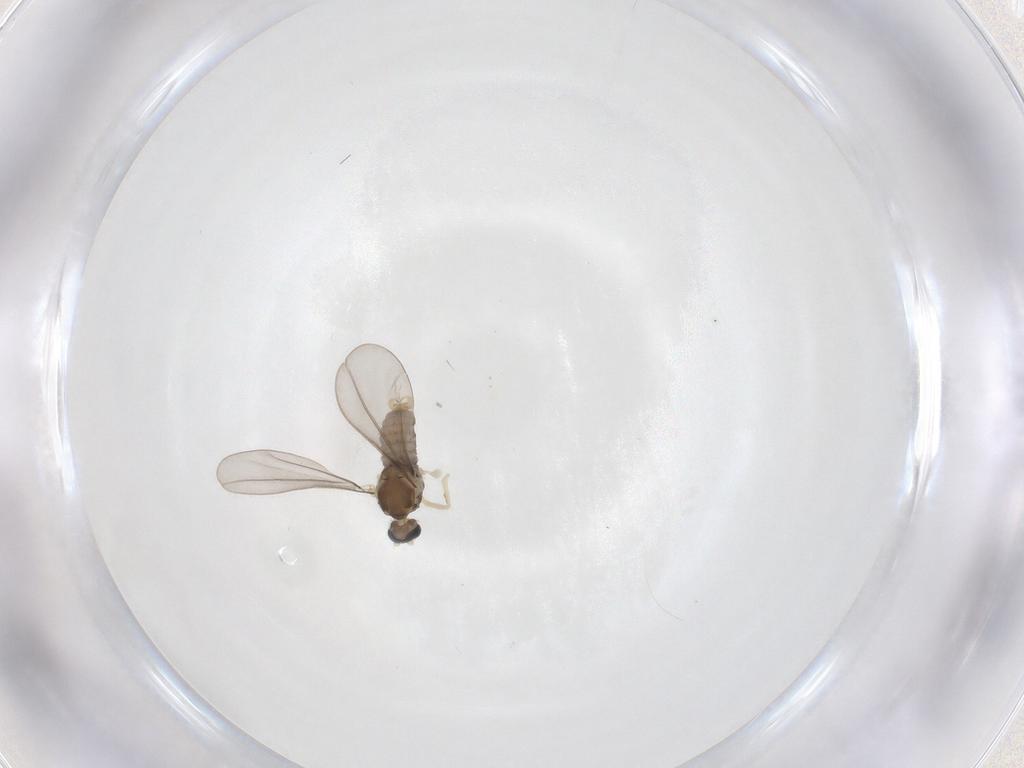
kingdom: Animalia
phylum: Arthropoda
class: Insecta
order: Diptera
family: Cecidomyiidae
